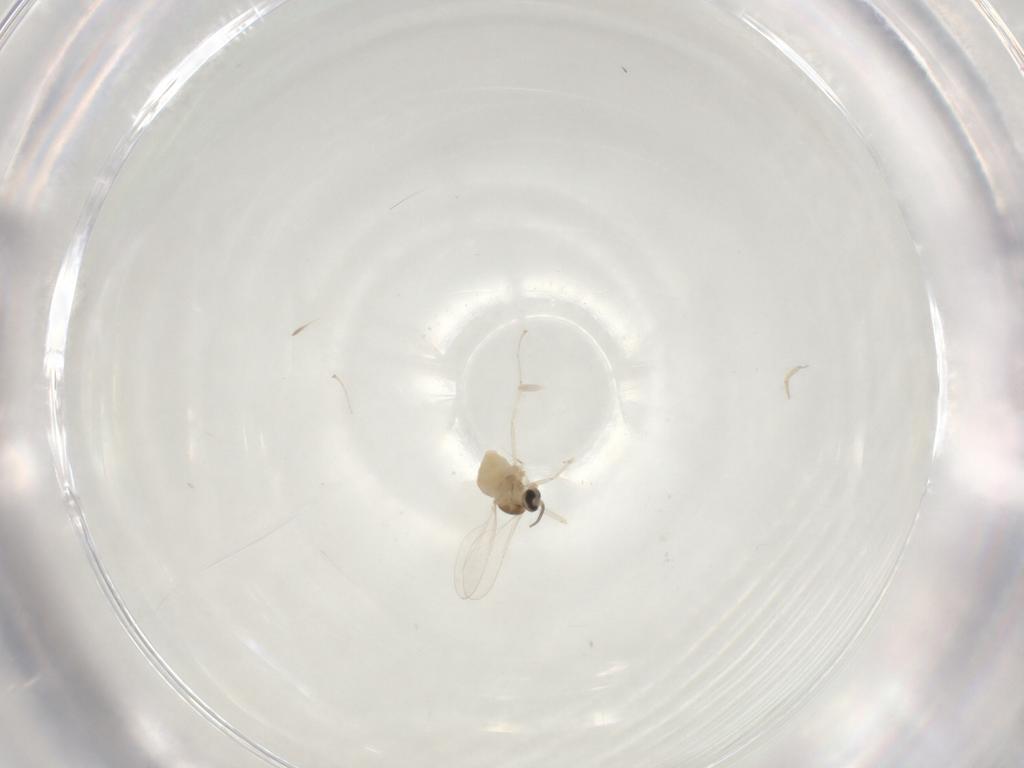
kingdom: Animalia
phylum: Arthropoda
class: Insecta
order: Diptera
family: Cecidomyiidae
